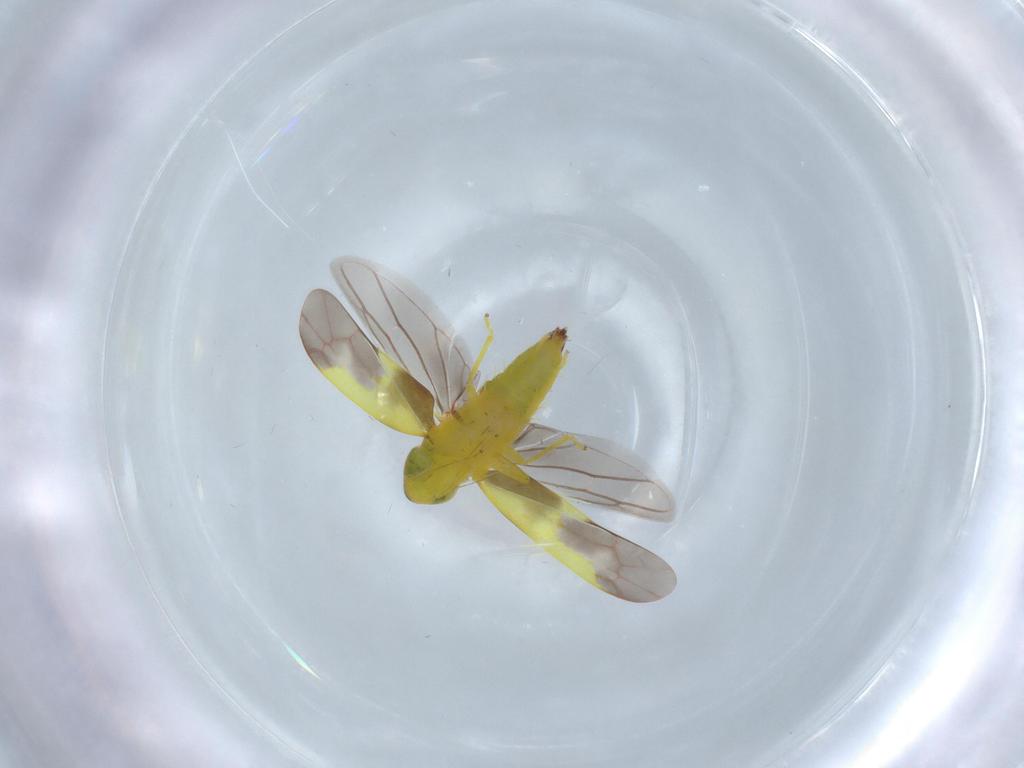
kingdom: Animalia
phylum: Arthropoda
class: Insecta
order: Hemiptera
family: Cicadellidae
